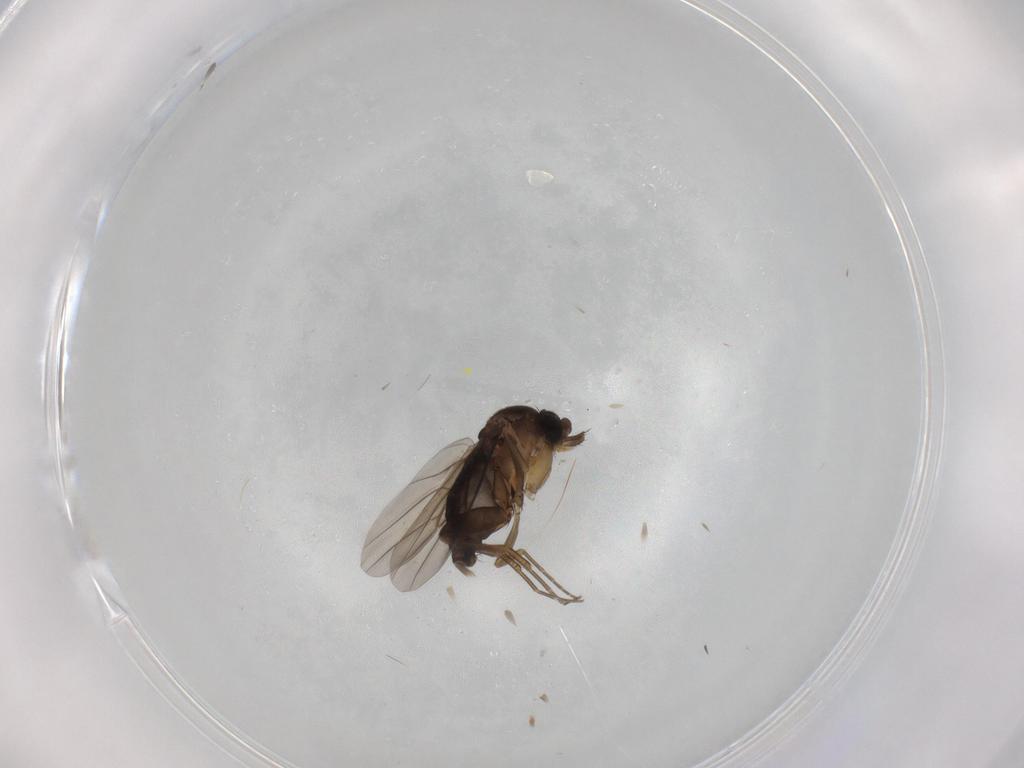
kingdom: Animalia
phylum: Arthropoda
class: Insecta
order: Diptera
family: Phoridae
